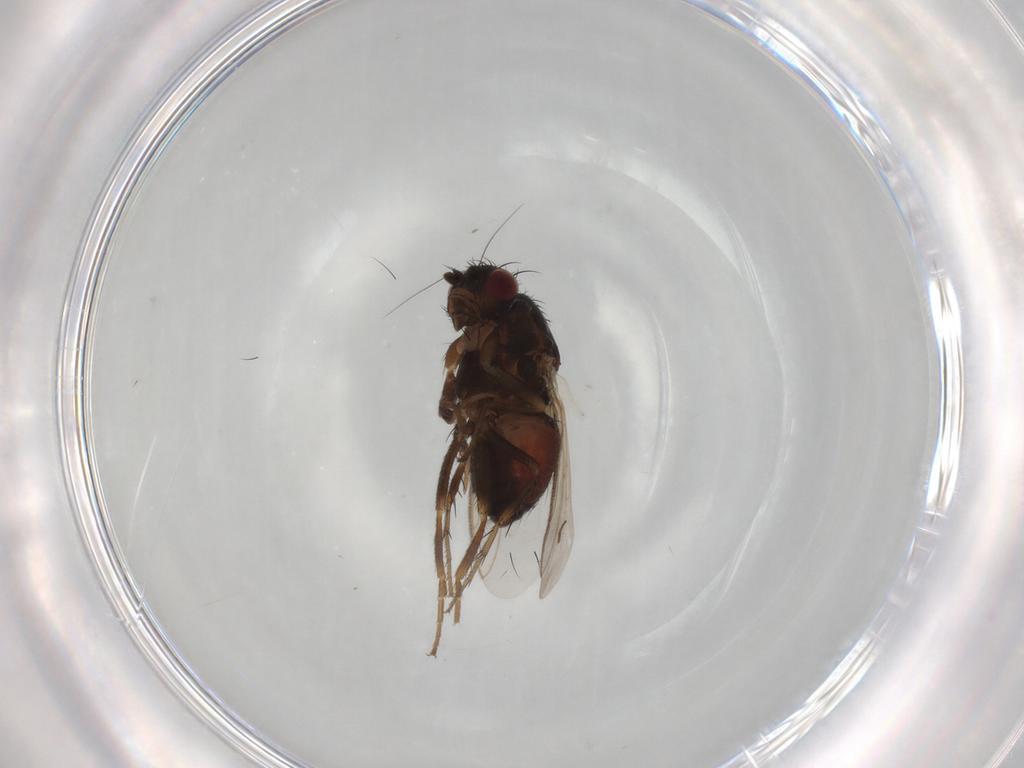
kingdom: Animalia
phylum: Arthropoda
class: Insecta
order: Diptera
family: Sphaeroceridae
